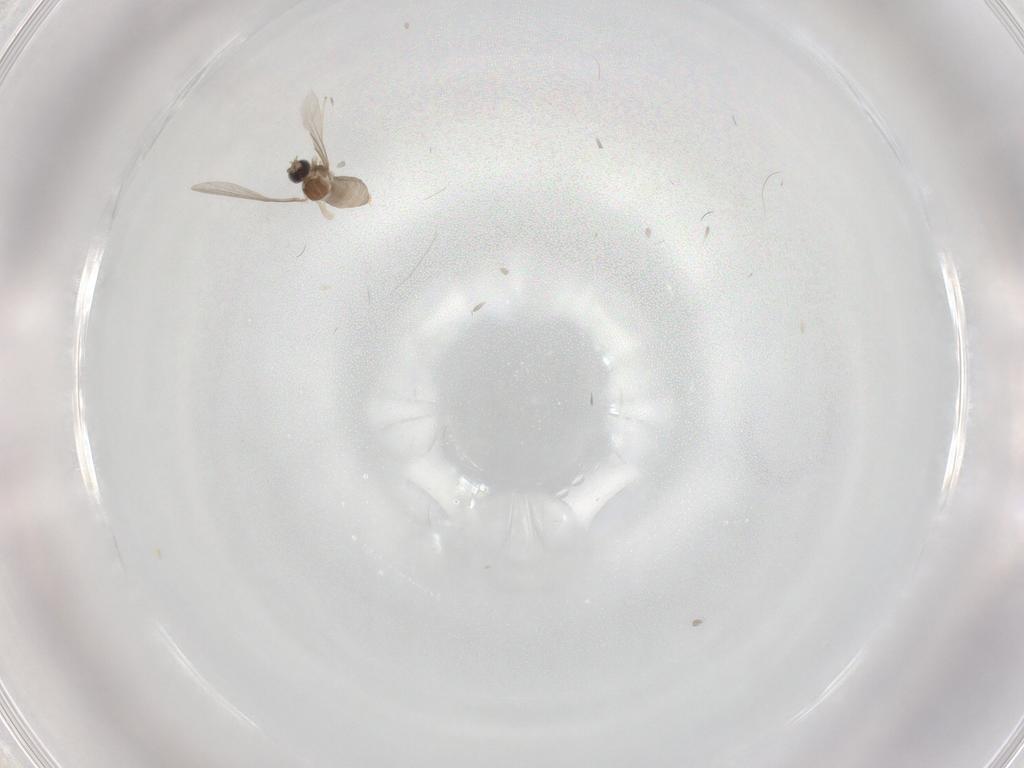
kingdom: Animalia
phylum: Arthropoda
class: Insecta
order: Diptera
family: Cecidomyiidae
